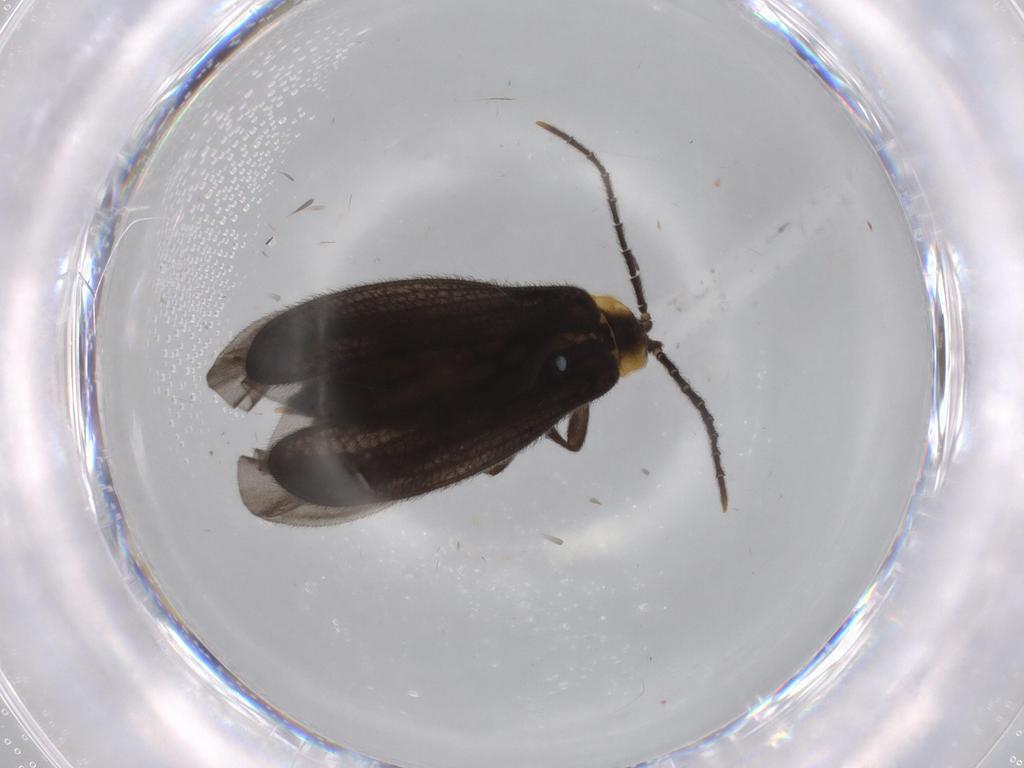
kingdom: Animalia
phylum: Arthropoda
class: Insecta
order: Coleoptera
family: Lycidae
